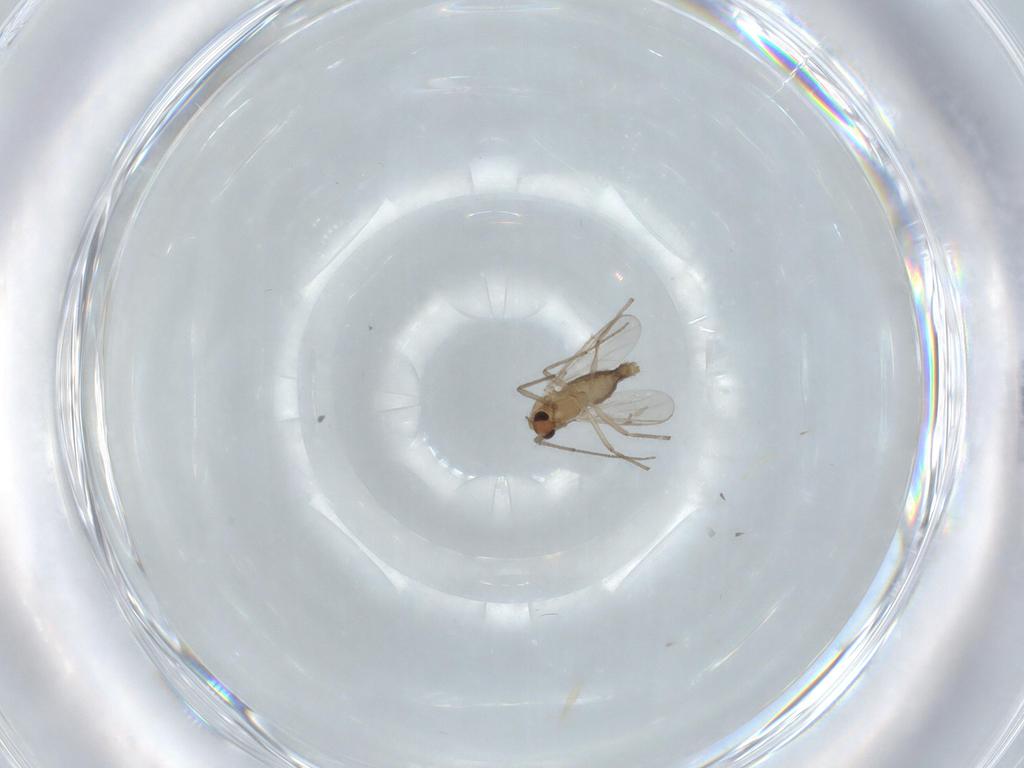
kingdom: Animalia
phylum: Arthropoda
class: Insecta
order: Diptera
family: Chironomidae
